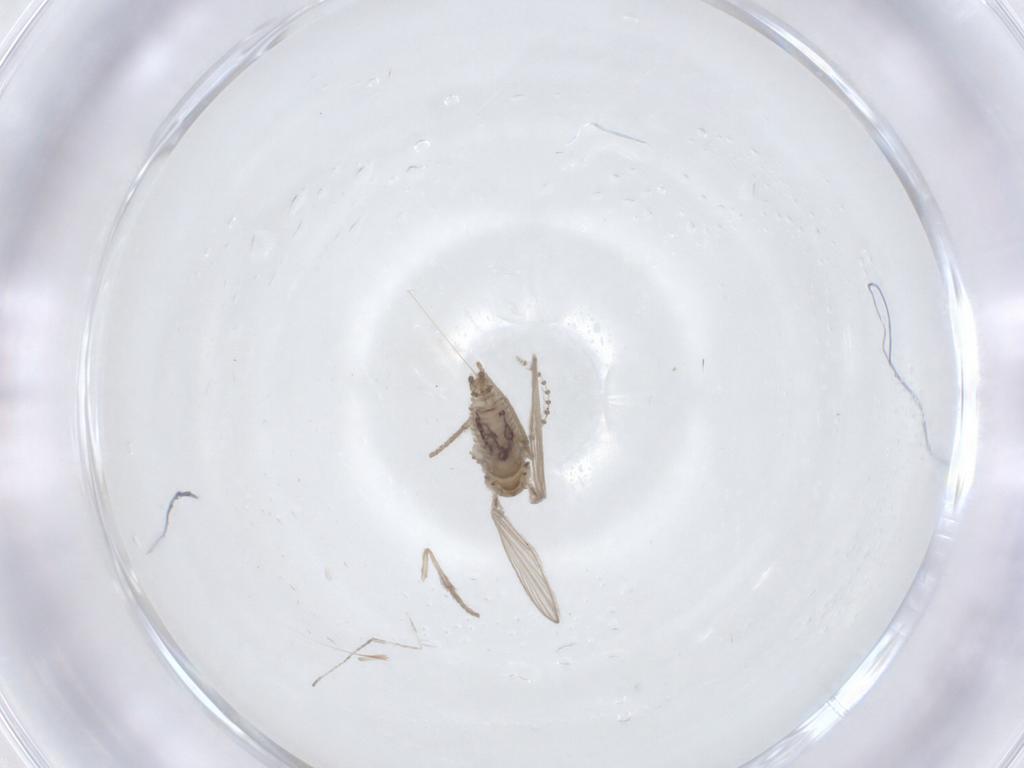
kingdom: Animalia
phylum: Arthropoda
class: Insecta
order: Diptera
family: Psychodidae
